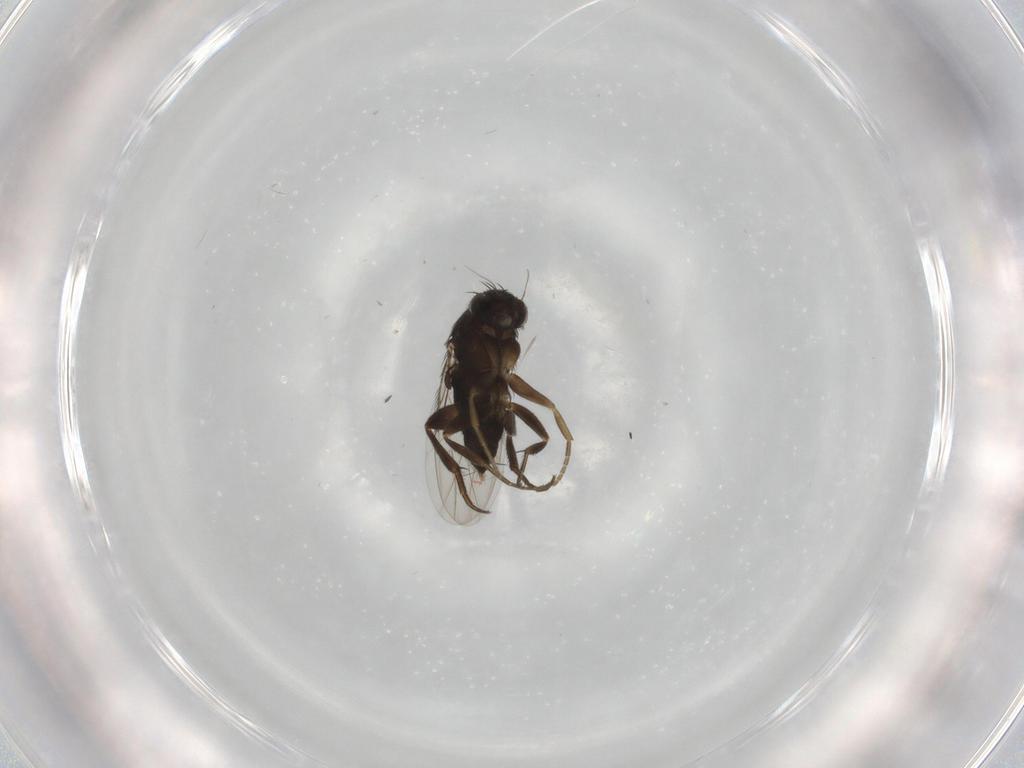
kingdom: Animalia
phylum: Arthropoda
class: Insecta
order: Diptera
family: Phoridae
